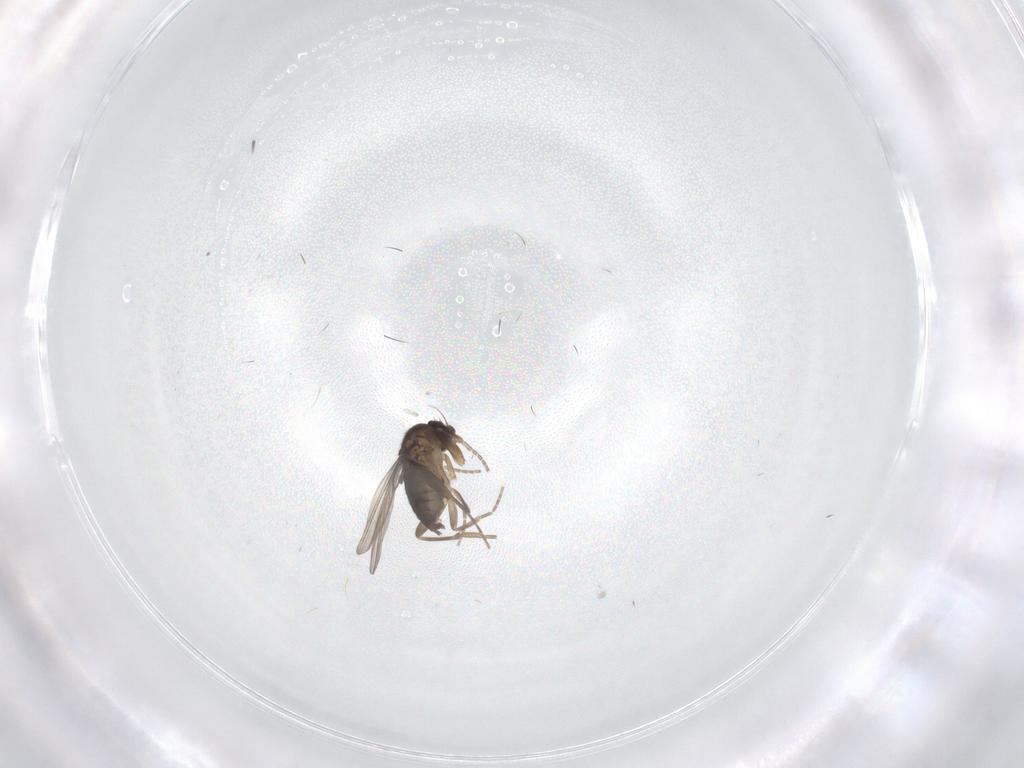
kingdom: Animalia
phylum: Arthropoda
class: Insecta
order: Diptera
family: Phoridae
